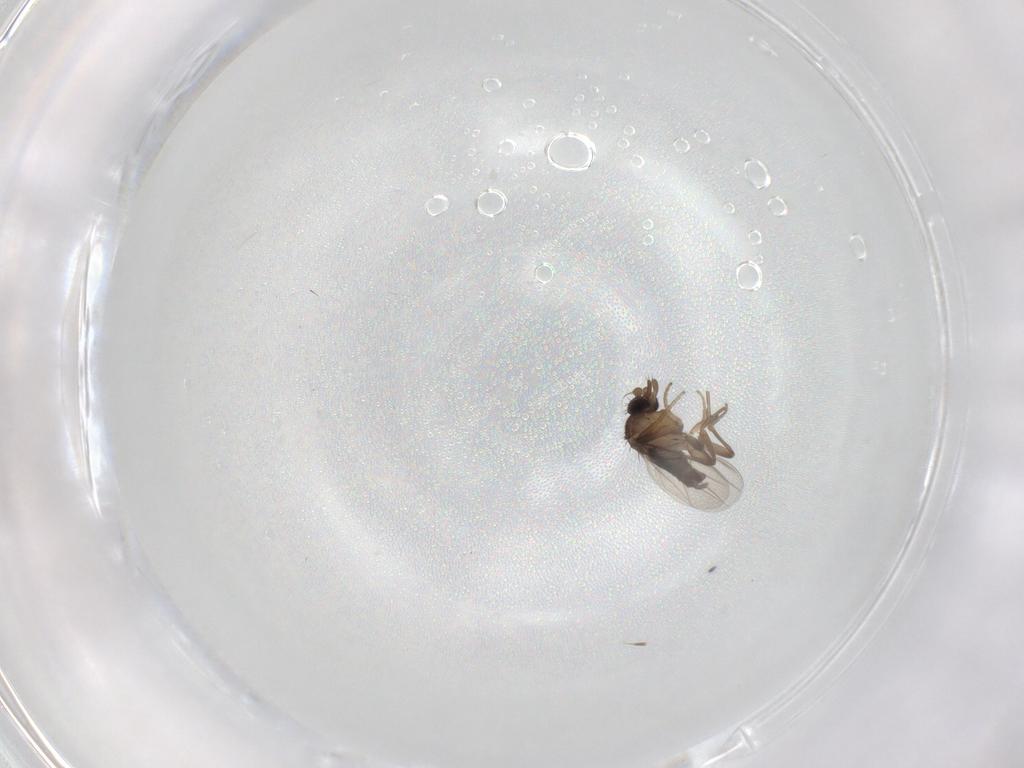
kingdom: Animalia
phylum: Arthropoda
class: Insecta
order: Diptera
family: Phoridae
